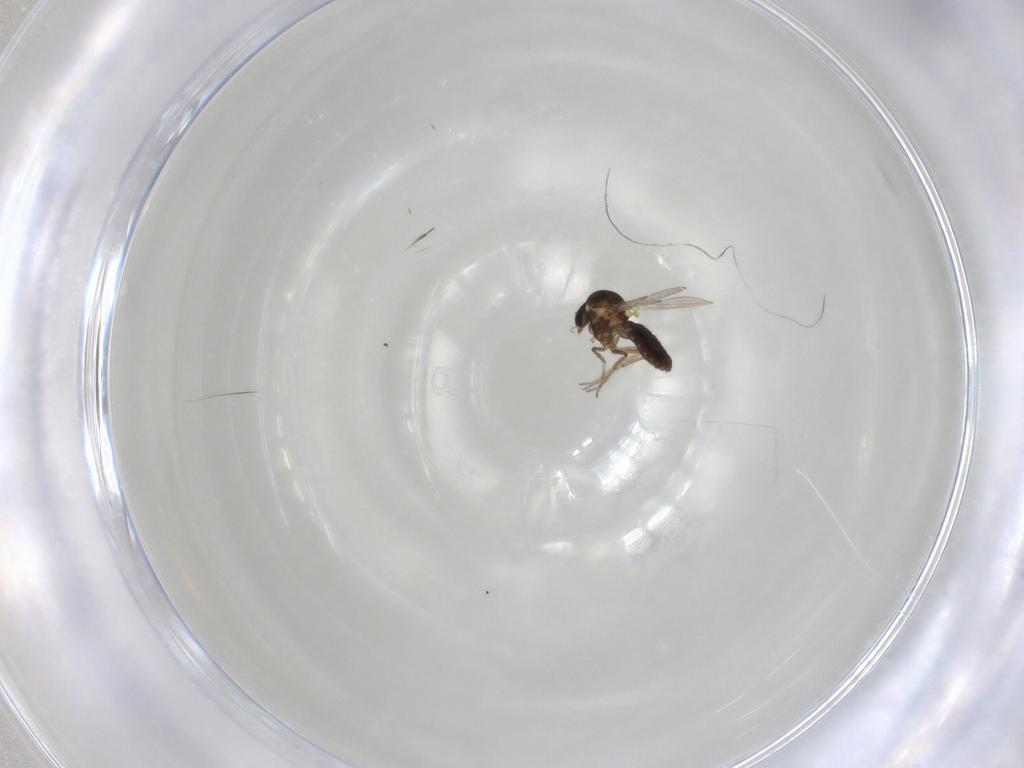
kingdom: Animalia
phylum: Arthropoda
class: Insecta
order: Diptera
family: Ceratopogonidae
